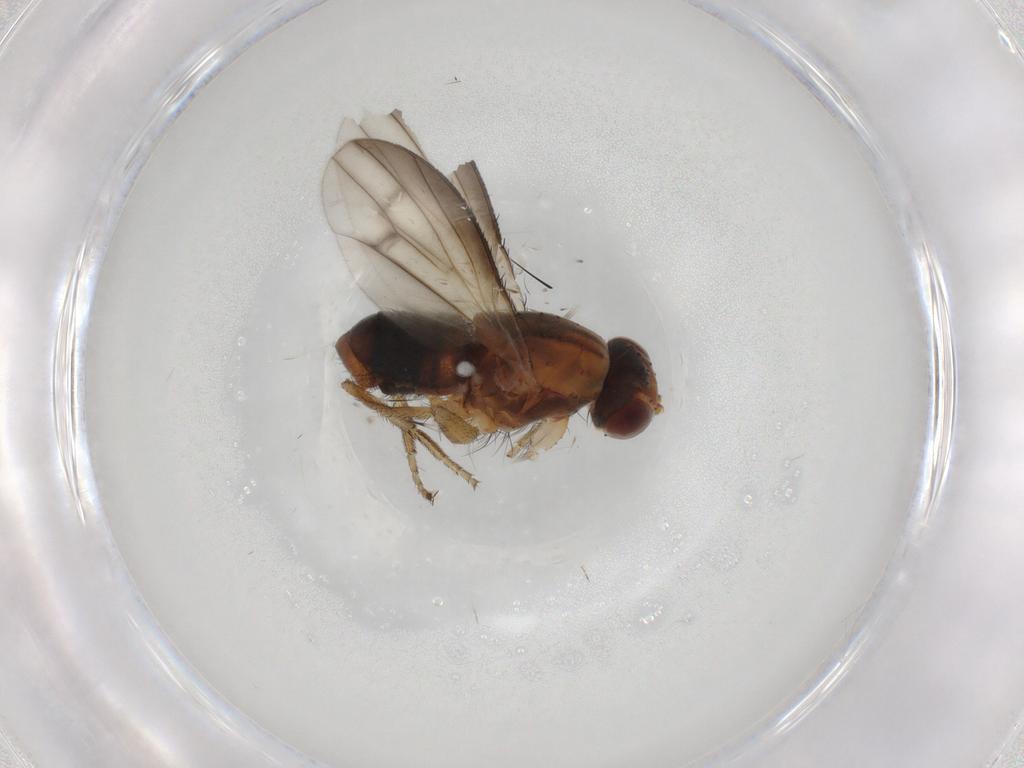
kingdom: Animalia
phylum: Arthropoda
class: Insecta
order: Diptera
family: Heleomyzidae
